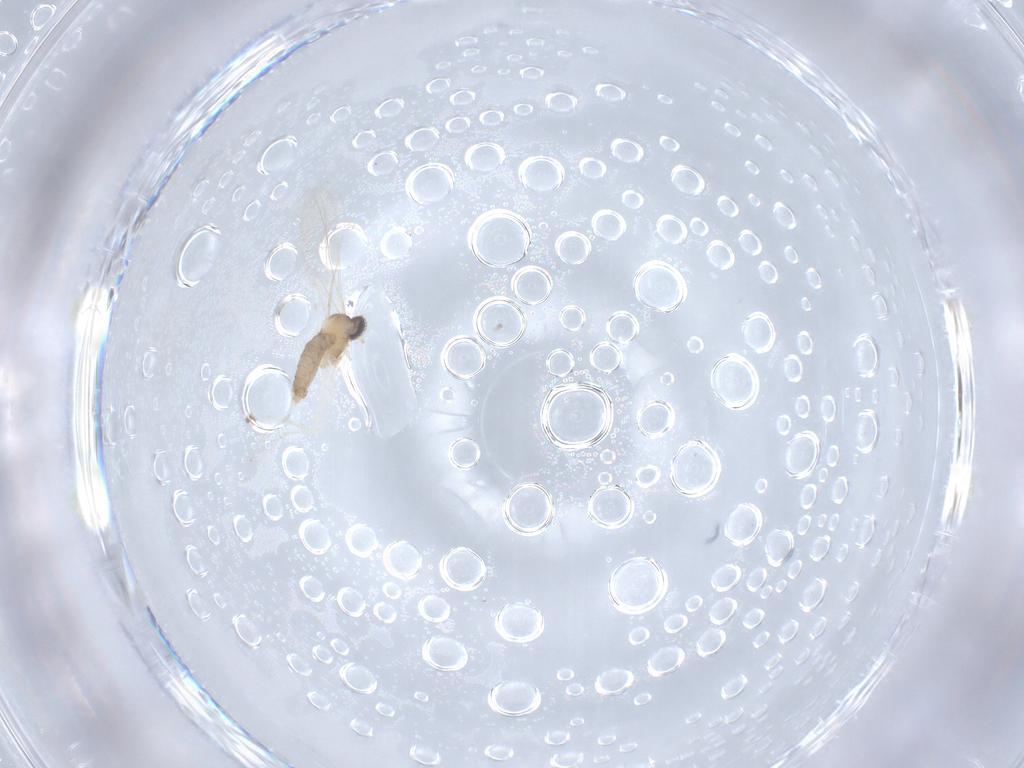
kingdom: Animalia
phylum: Arthropoda
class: Insecta
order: Diptera
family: Cecidomyiidae
